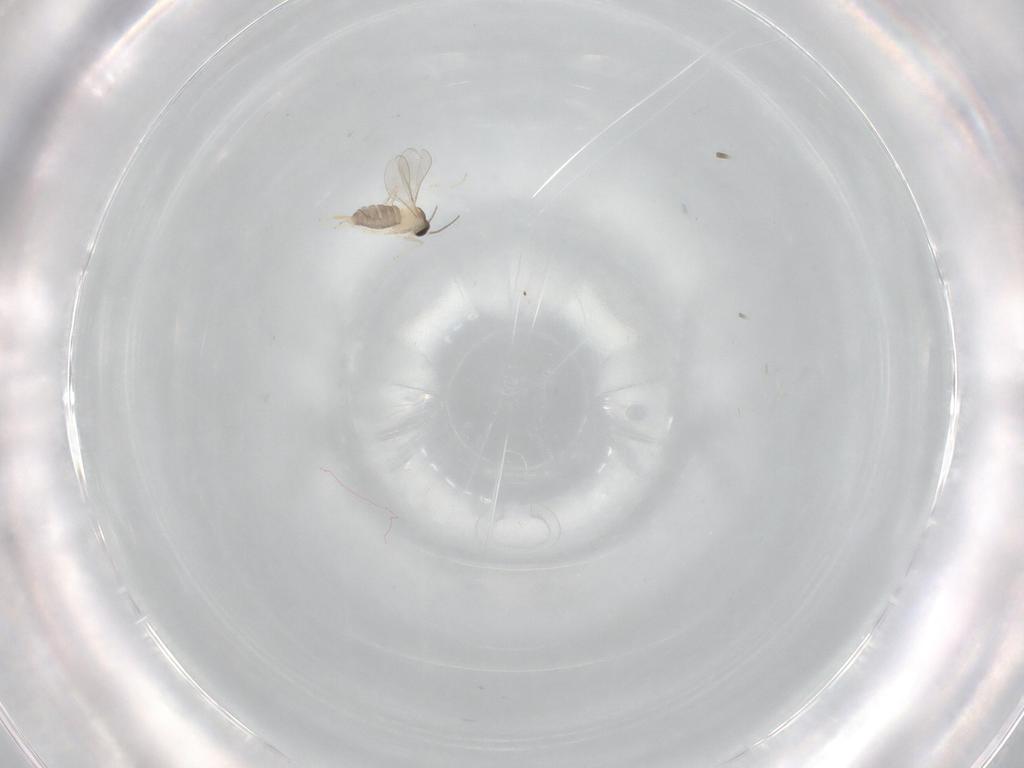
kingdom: Animalia
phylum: Arthropoda
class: Insecta
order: Diptera
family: Cecidomyiidae
